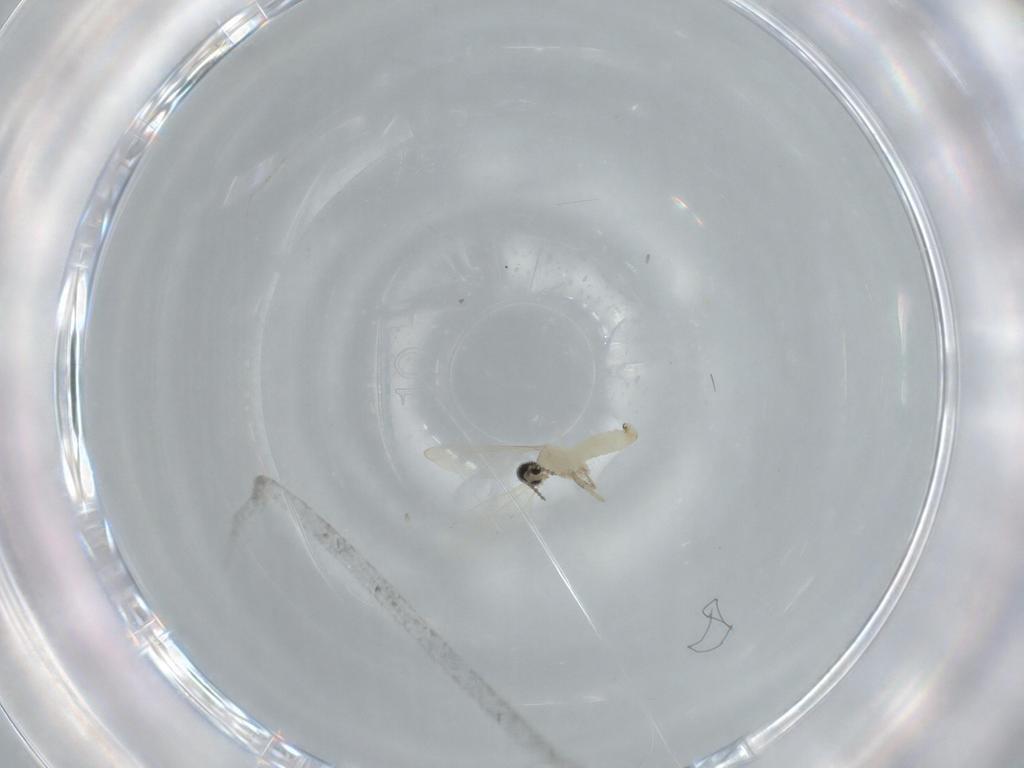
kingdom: Animalia
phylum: Arthropoda
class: Insecta
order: Diptera
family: Cecidomyiidae
